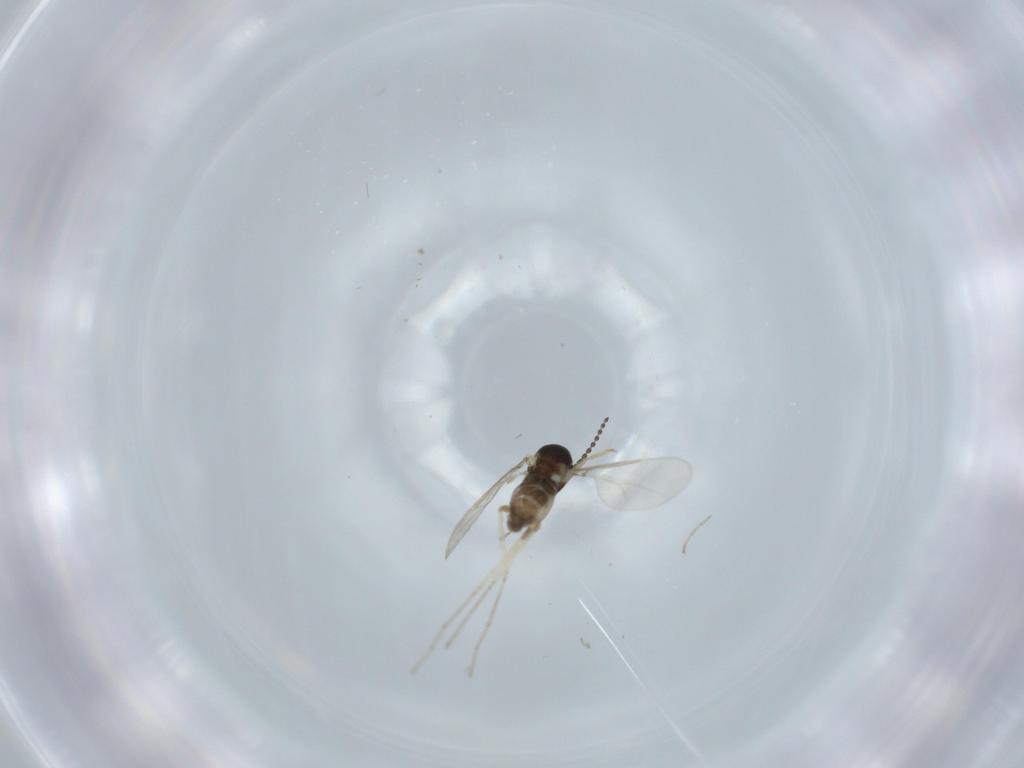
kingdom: Animalia
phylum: Arthropoda
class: Insecta
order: Diptera
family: Cecidomyiidae
